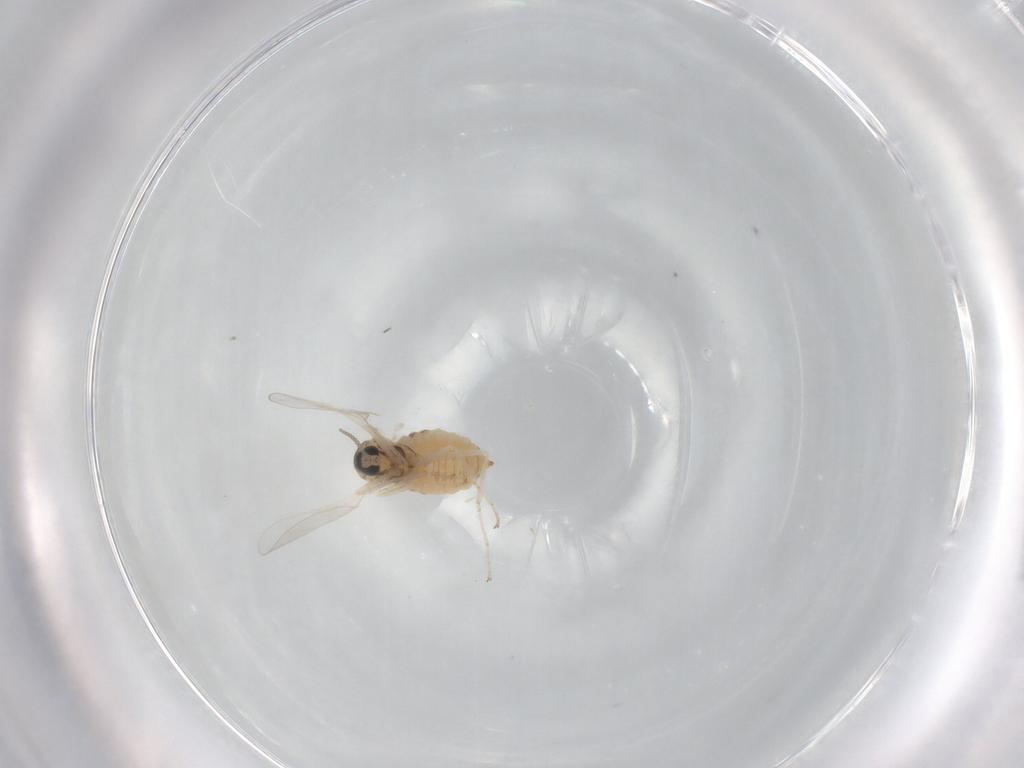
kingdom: Animalia
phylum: Arthropoda
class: Insecta
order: Diptera
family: Cecidomyiidae
